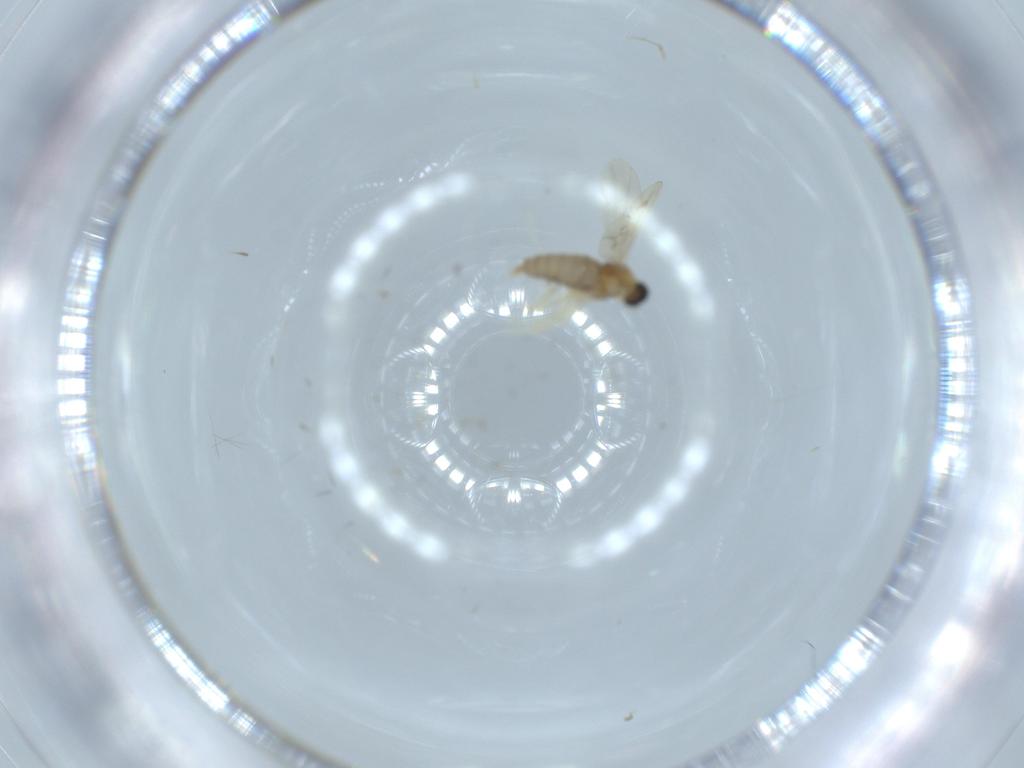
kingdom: Animalia
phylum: Arthropoda
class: Insecta
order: Diptera
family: Cecidomyiidae
